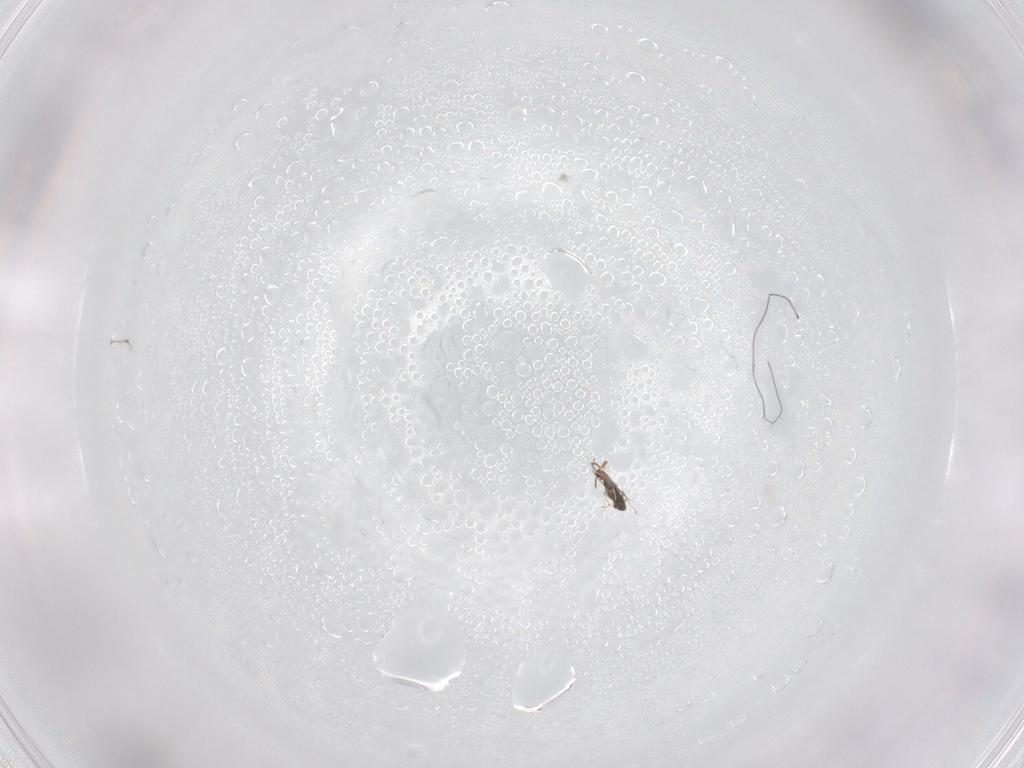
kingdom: Animalia
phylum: Arthropoda
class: Insecta
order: Hymenoptera
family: Azotidae
